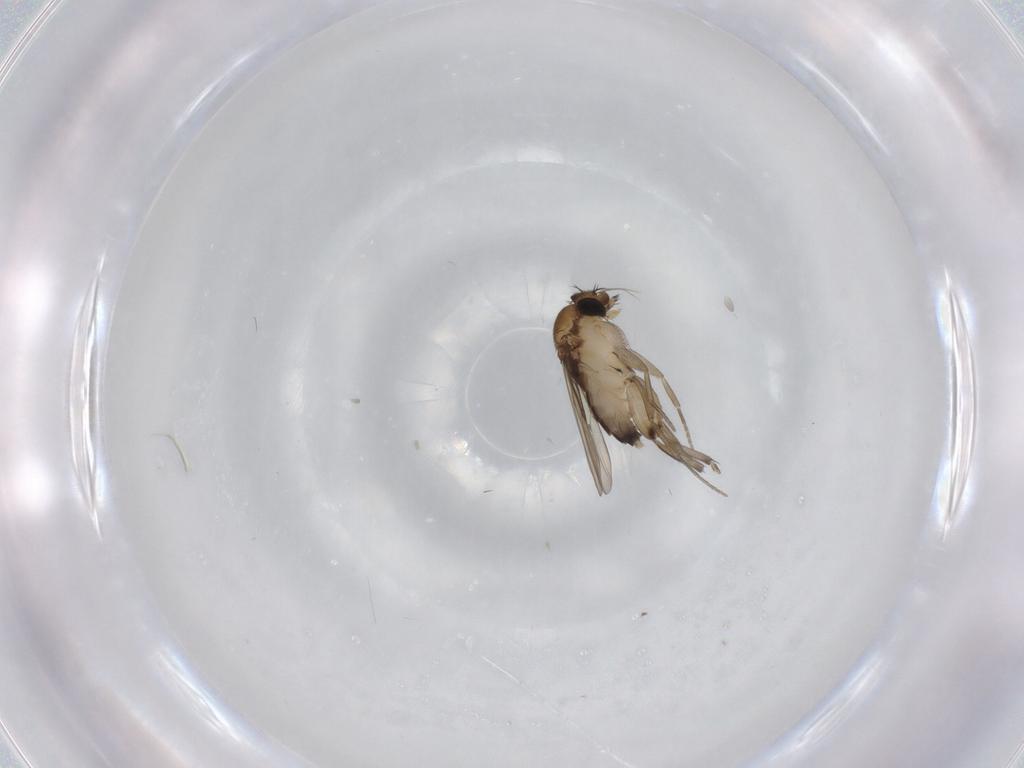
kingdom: Animalia
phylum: Arthropoda
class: Insecta
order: Diptera
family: Phoridae
